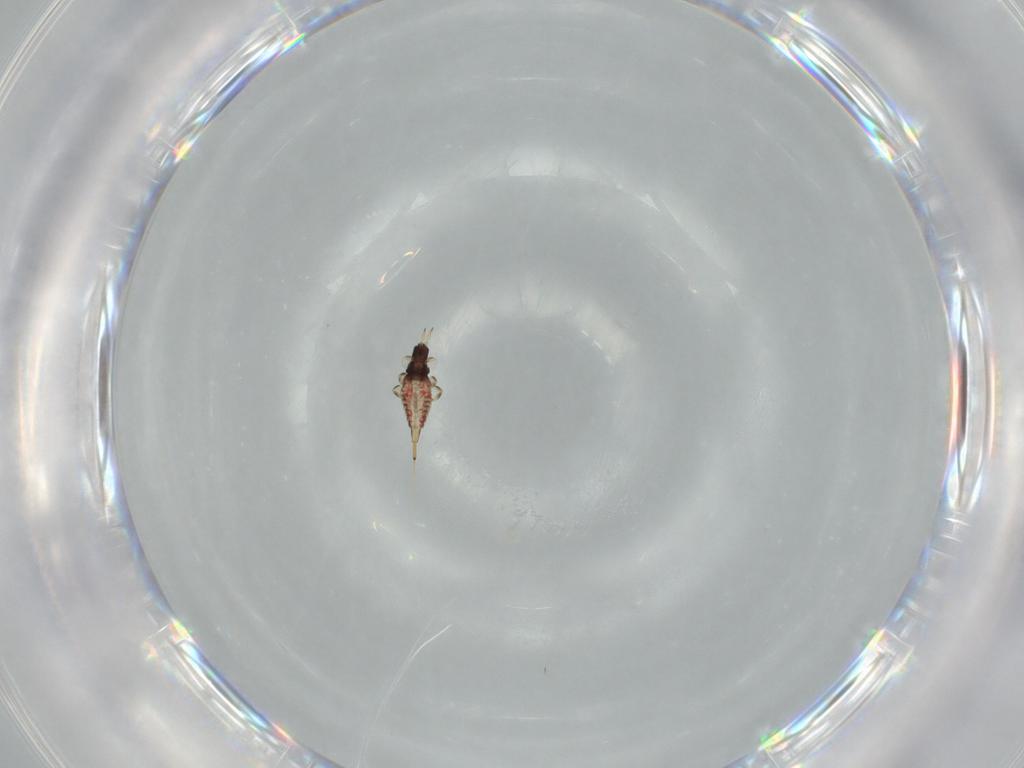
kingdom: Animalia
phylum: Arthropoda
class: Insecta
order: Thysanoptera
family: Phlaeothripidae
